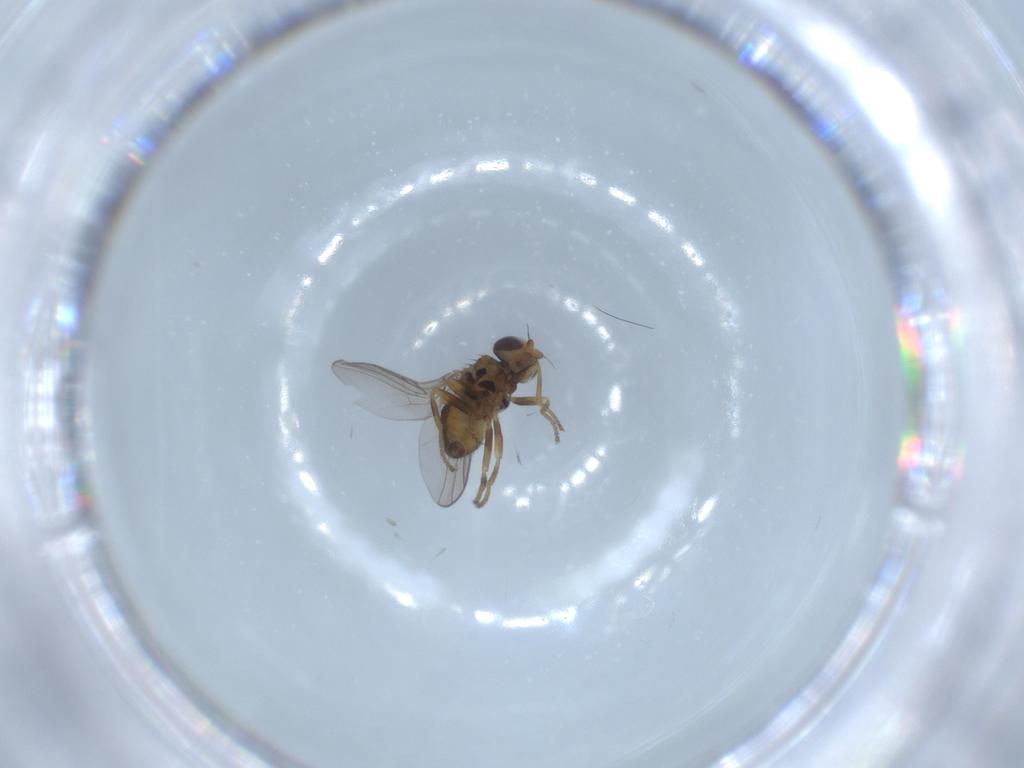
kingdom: Animalia
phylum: Arthropoda
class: Insecta
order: Diptera
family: Chloropidae
